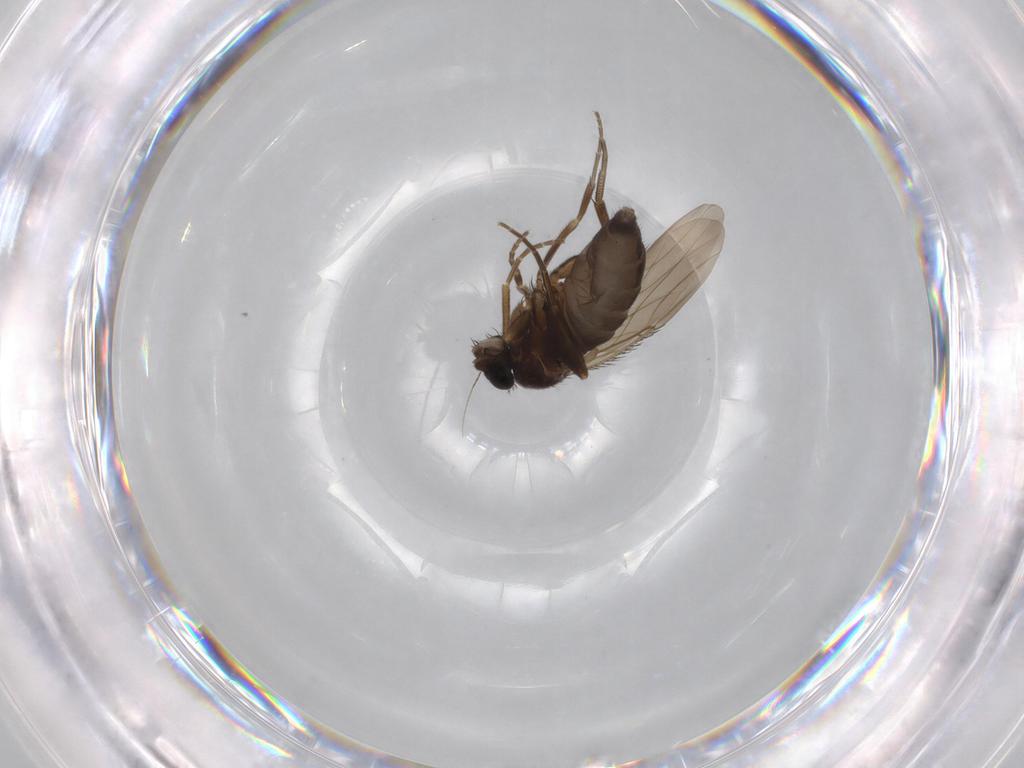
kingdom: Animalia
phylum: Arthropoda
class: Insecta
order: Diptera
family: Phoridae
